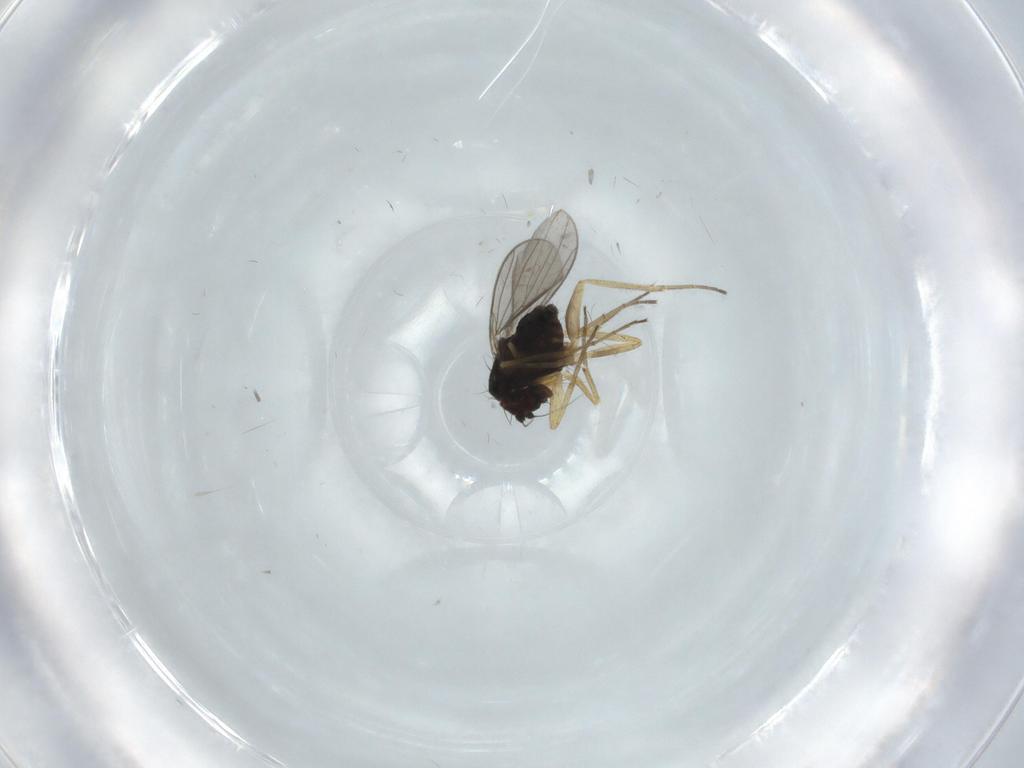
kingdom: Animalia
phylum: Arthropoda
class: Insecta
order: Diptera
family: Dolichopodidae
